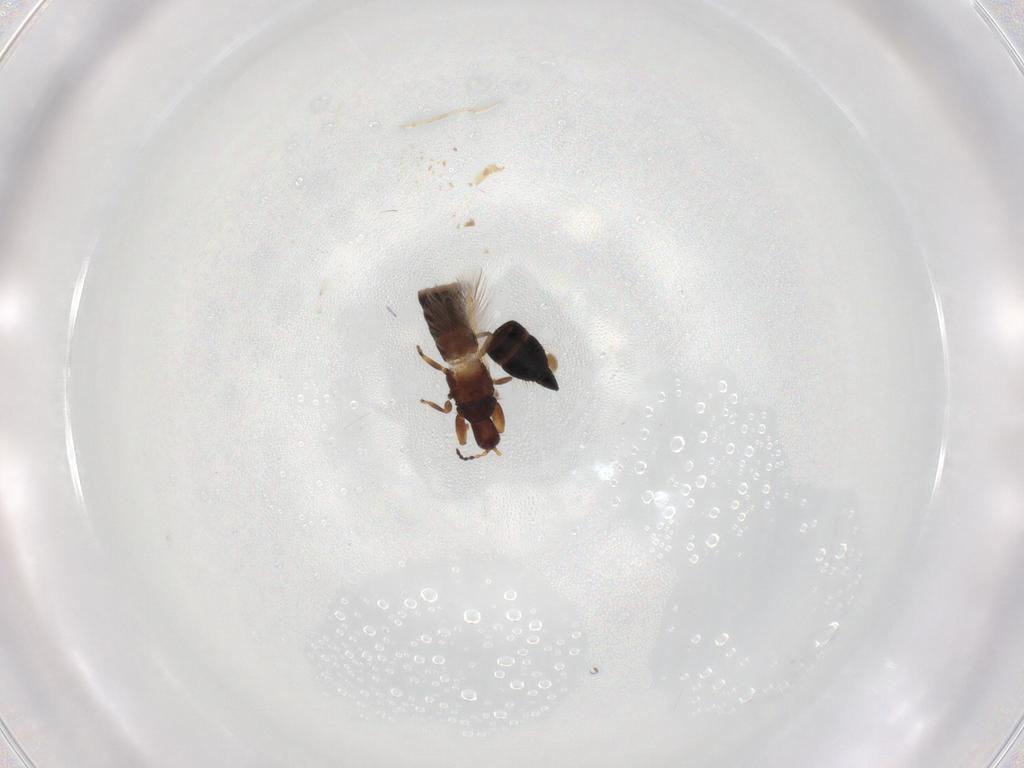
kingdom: Animalia
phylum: Arthropoda
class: Insecta
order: Thysanoptera
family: Phlaeothripidae
